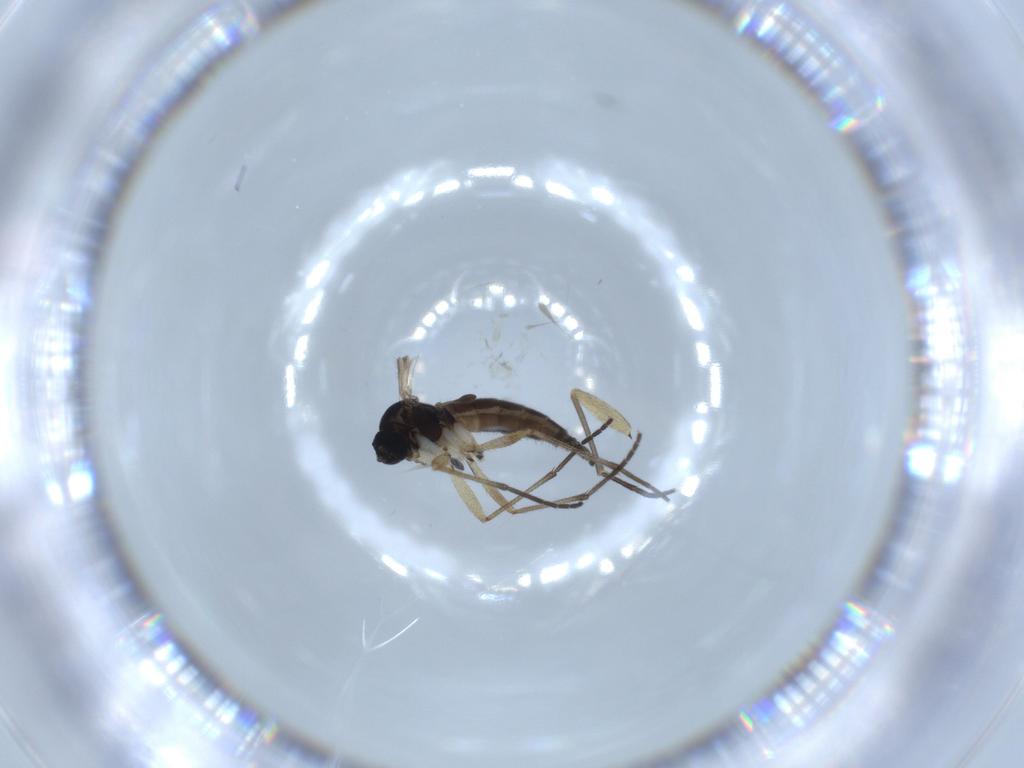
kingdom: Animalia
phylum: Arthropoda
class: Insecta
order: Diptera
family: Sciaridae
